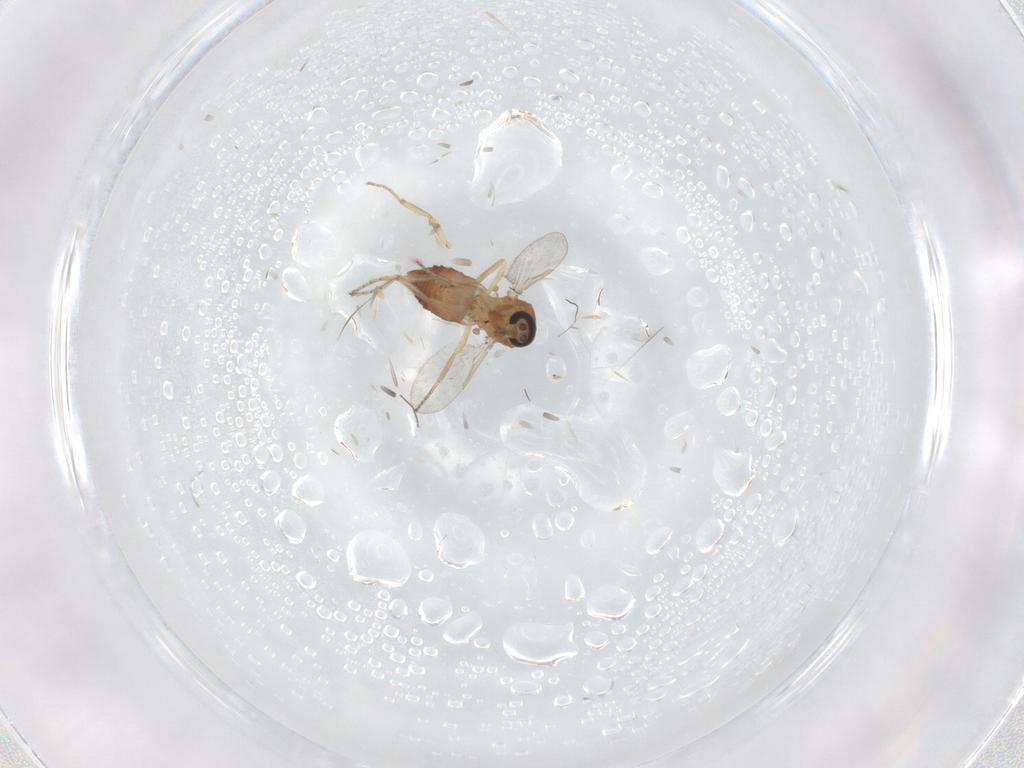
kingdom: Animalia
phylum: Arthropoda
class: Insecta
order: Diptera
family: Ceratopogonidae
